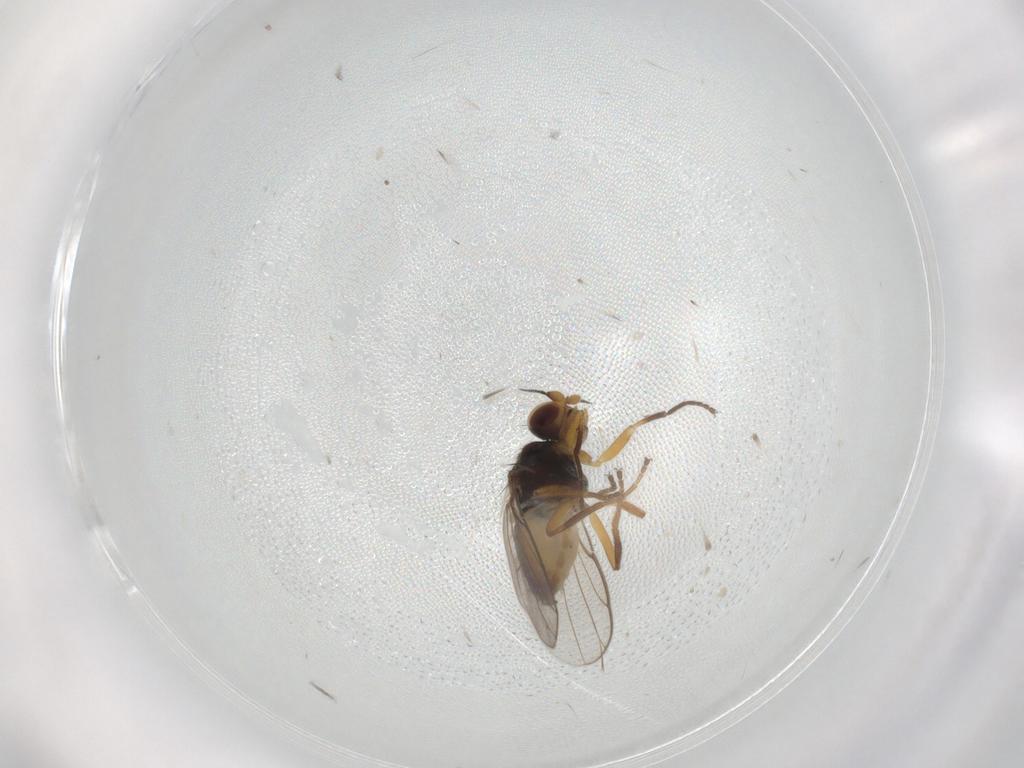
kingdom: Animalia
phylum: Arthropoda
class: Insecta
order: Diptera
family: Chloropidae
